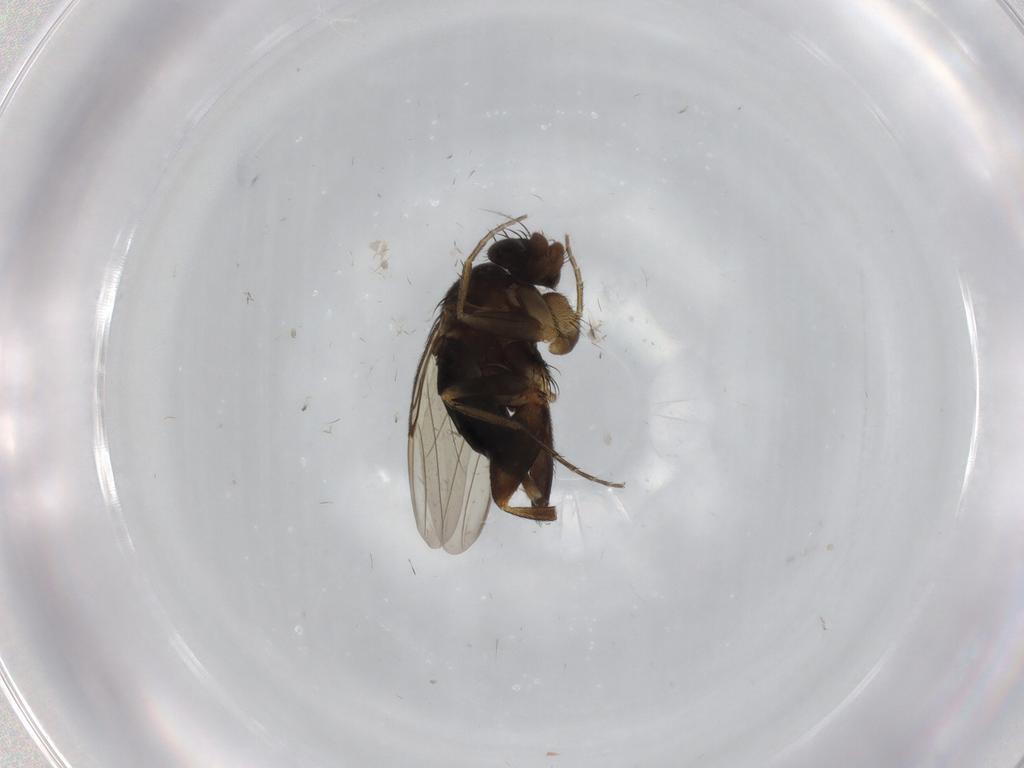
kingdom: Animalia
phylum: Arthropoda
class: Insecta
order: Diptera
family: Phoridae
